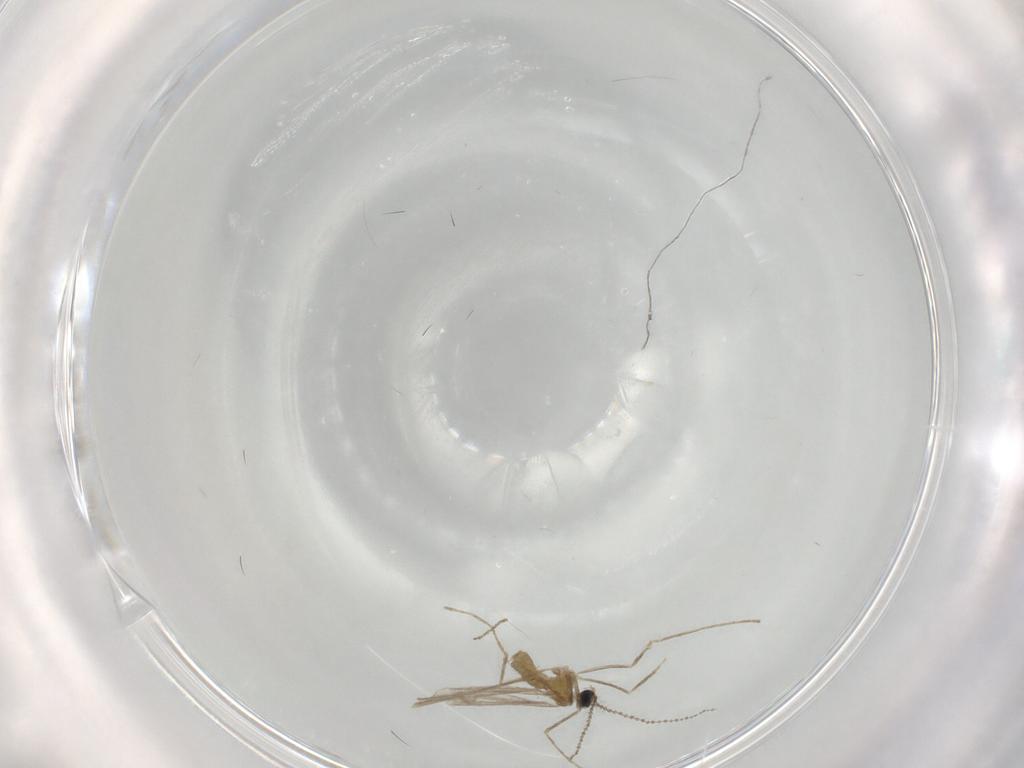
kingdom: Animalia
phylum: Arthropoda
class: Insecta
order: Diptera
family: Cecidomyiidae
